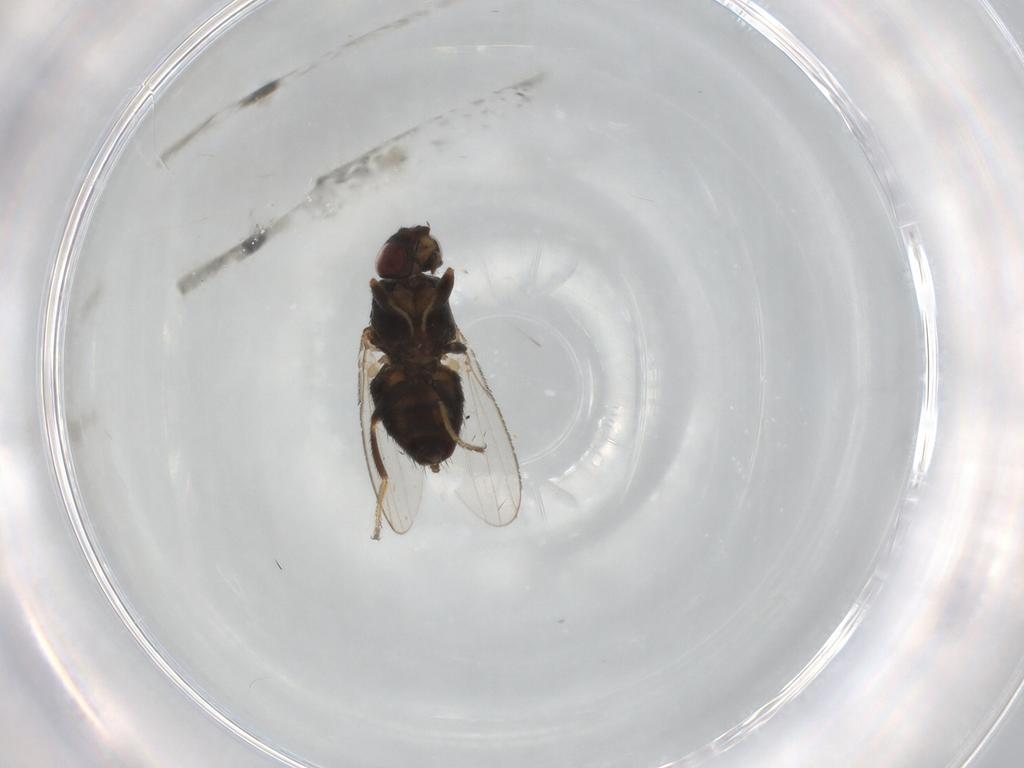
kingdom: Animalia
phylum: Arthropoda
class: Insecta
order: Diptera
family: Milichiidae
